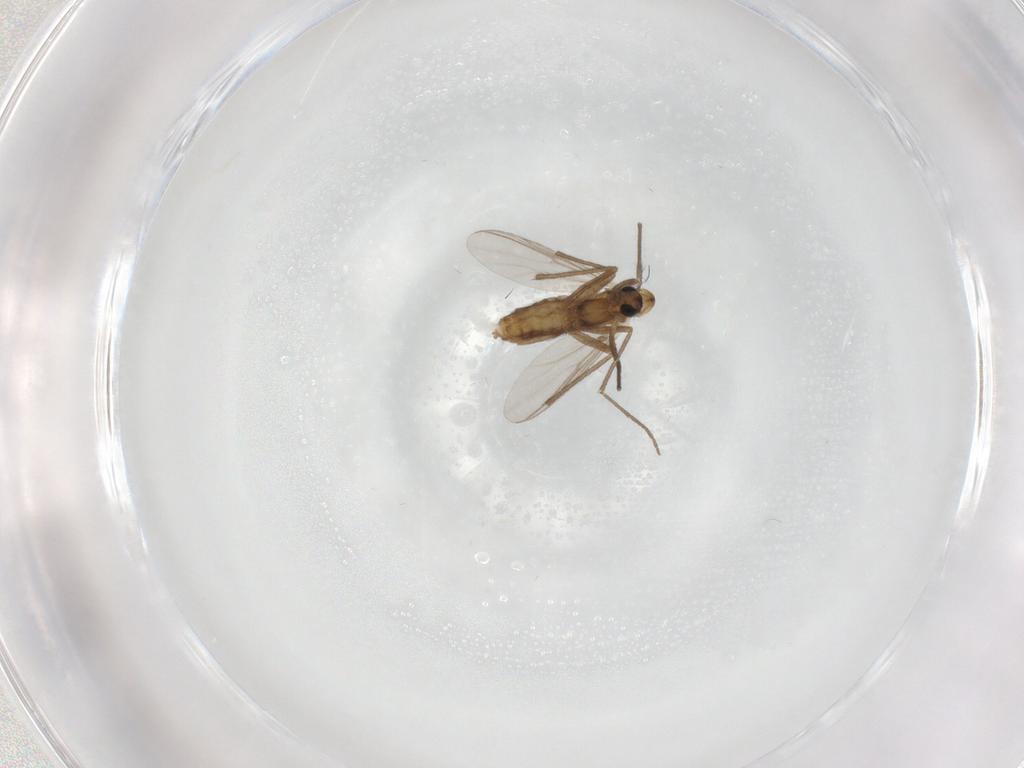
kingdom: Animalia
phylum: Arthropoda
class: Insecta
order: Diptera
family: Chironomidae
